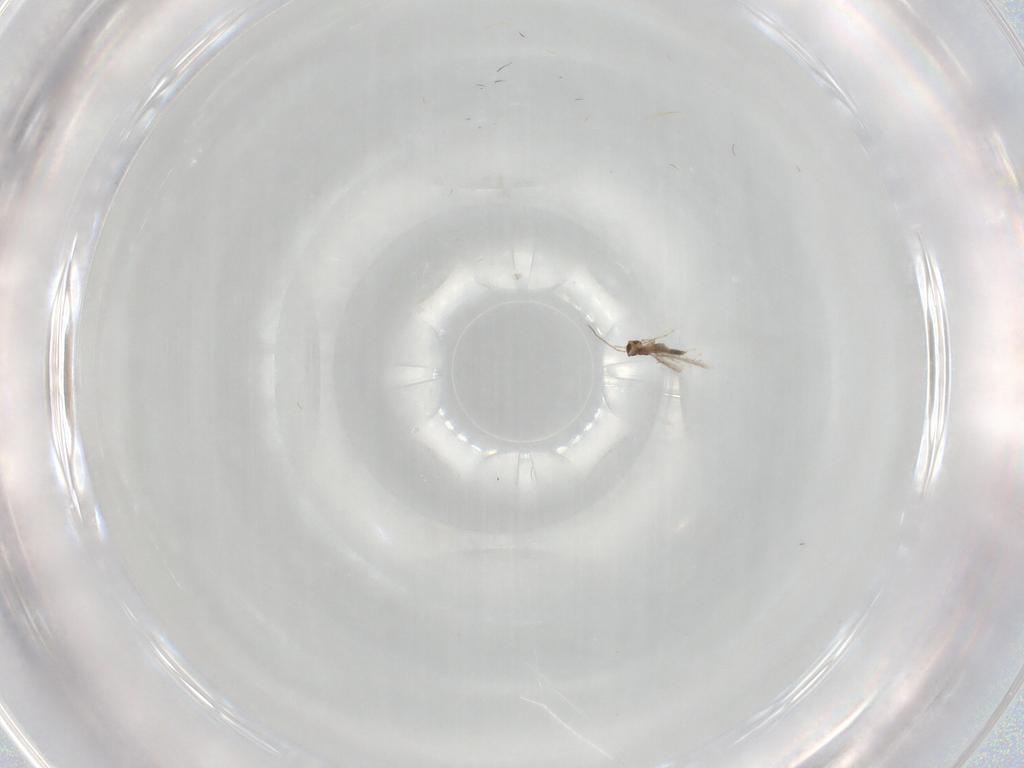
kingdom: Animalia
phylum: Arthropoda
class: Insecta
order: Hymenoptera
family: Mymaridae
